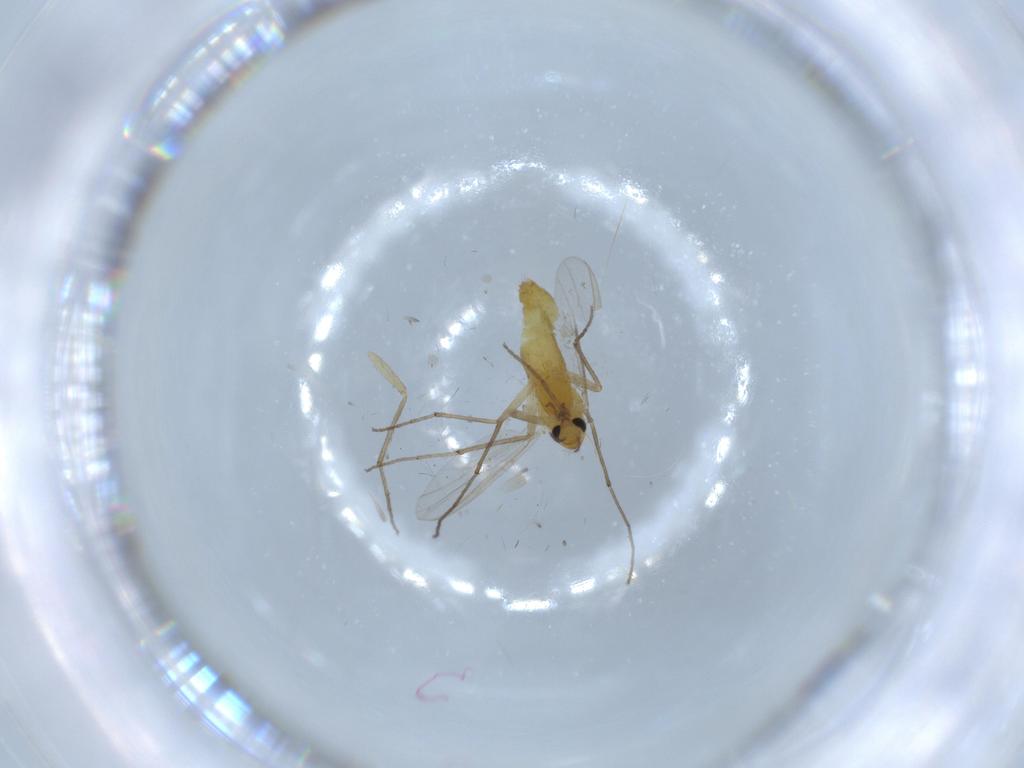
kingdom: Animalia
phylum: Arthropoda
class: Insecta
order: Diptera
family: Chironomidae
